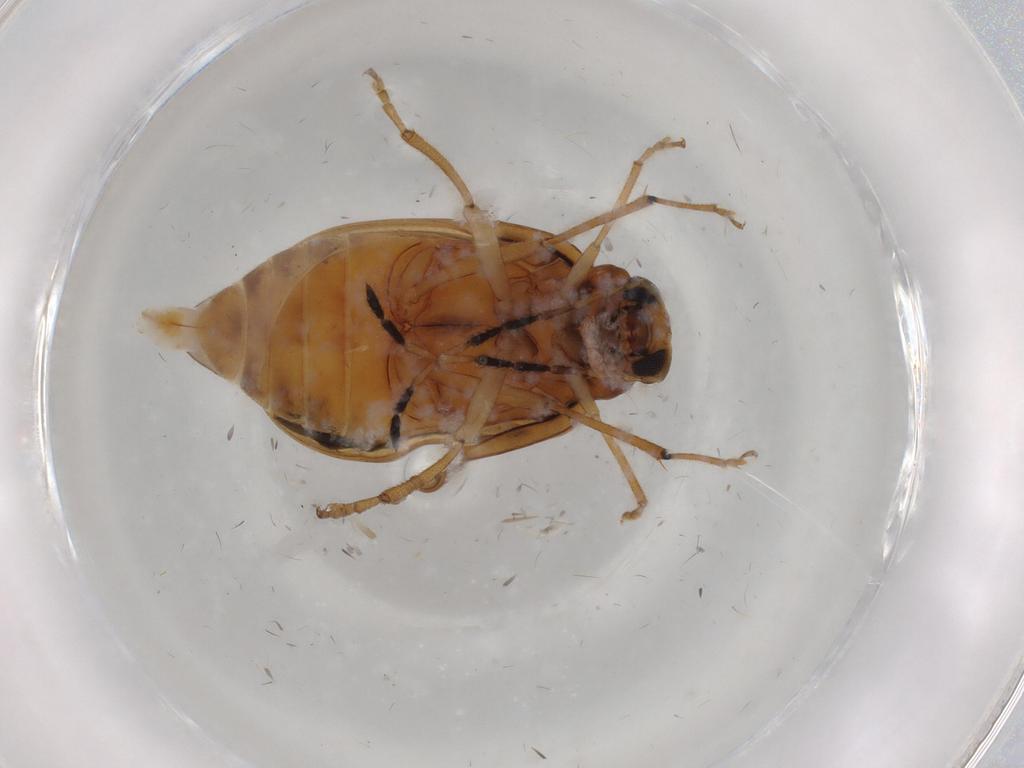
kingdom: Animalia
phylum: Arthropoda
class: Insecta
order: Coleoptera
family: Chrysomelidae
